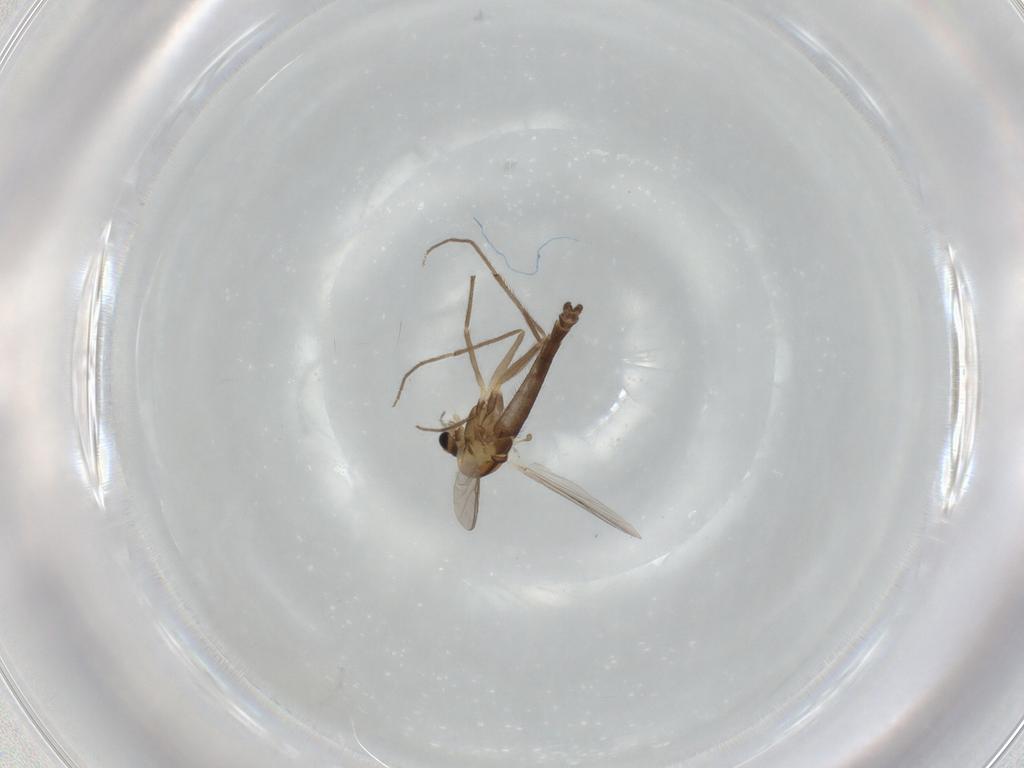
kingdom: Animalia
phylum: Arthropoda
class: Insecta
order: Diptera
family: Chironomidae
